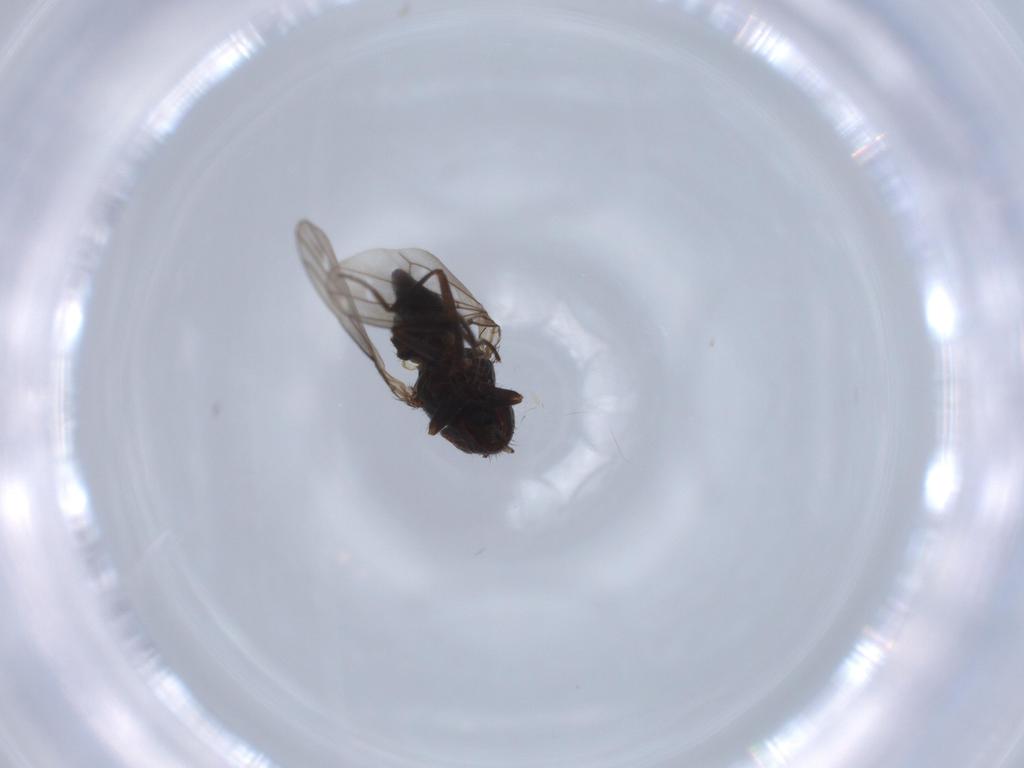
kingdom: Animalia
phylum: Arthropoda
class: Insecta
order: Diptera
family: Ephydridae
